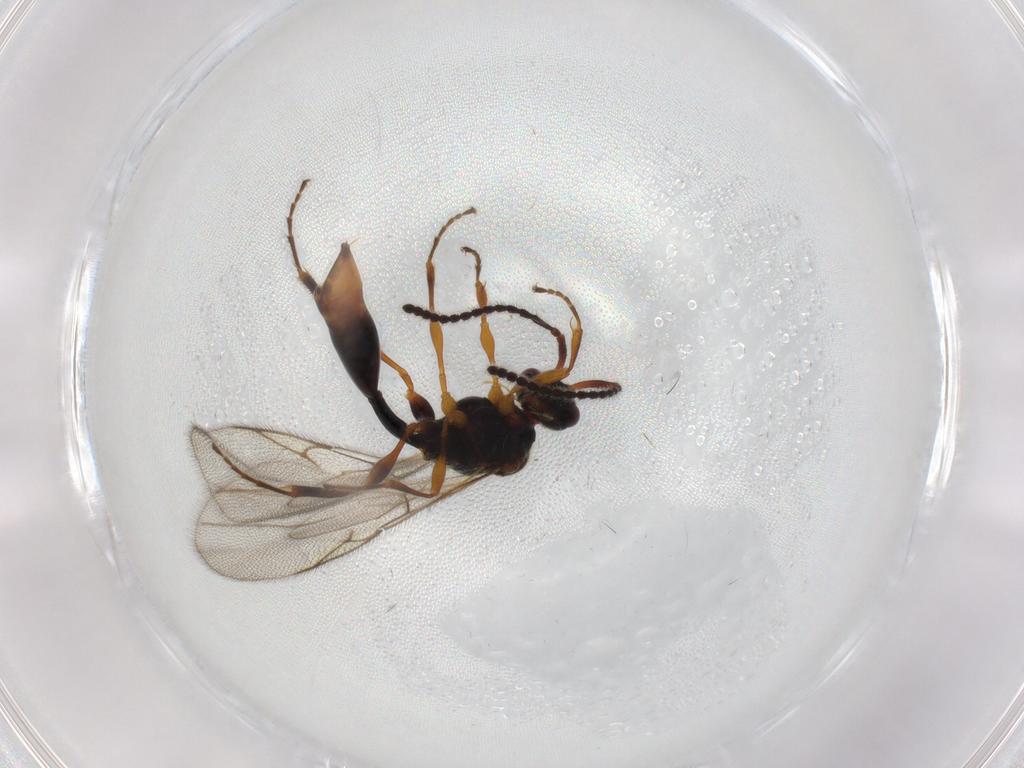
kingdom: Animalia
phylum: Arthropoda
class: Insecta
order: Hymenoptera
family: Diapriidae
